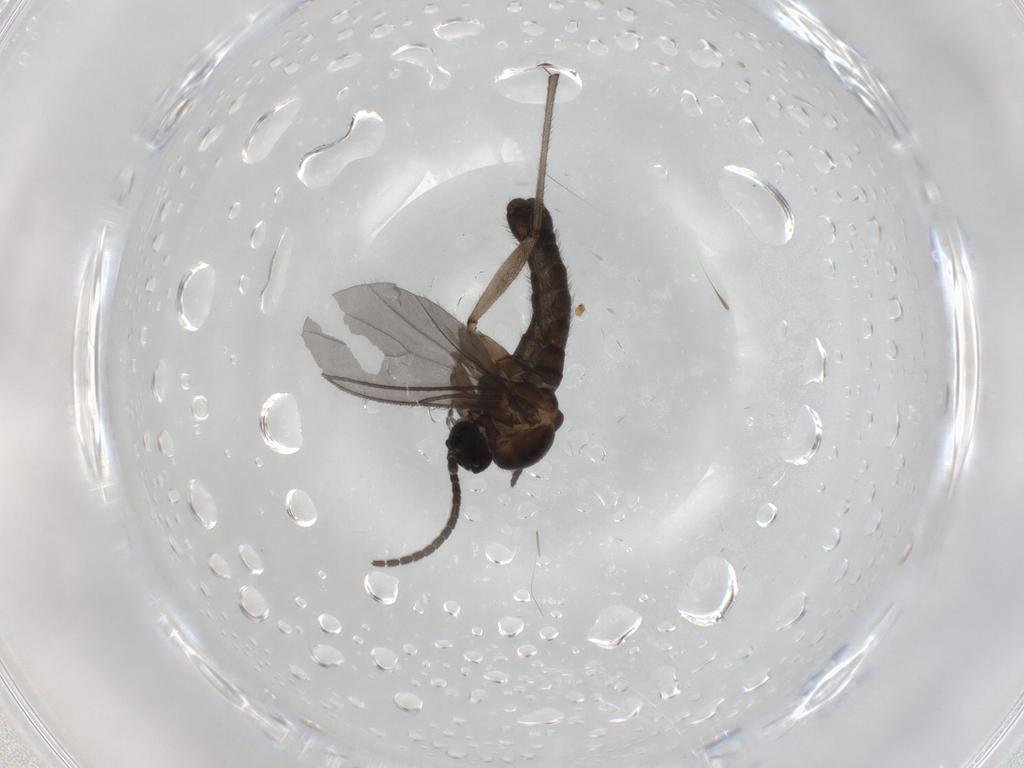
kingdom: Animalia
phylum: Arthropoda
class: Insecta
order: Diptera
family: Sciaridae
